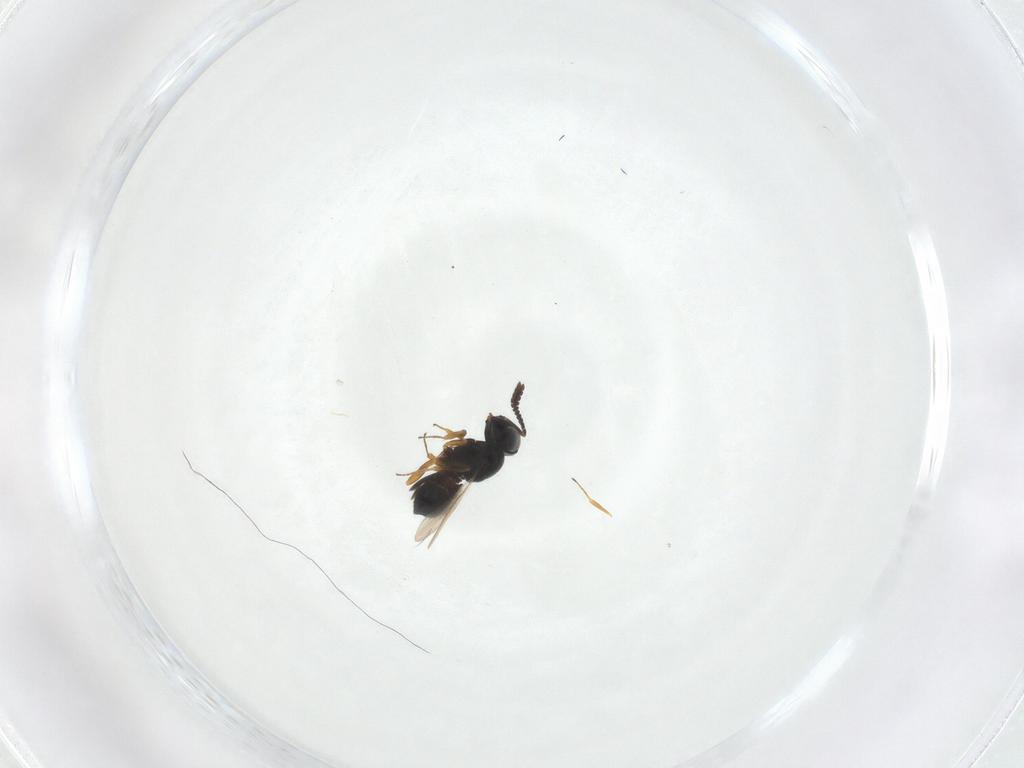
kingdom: Animalia
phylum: Arthropoda
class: Insecta
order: Hymenoptera
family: Scelionidae
